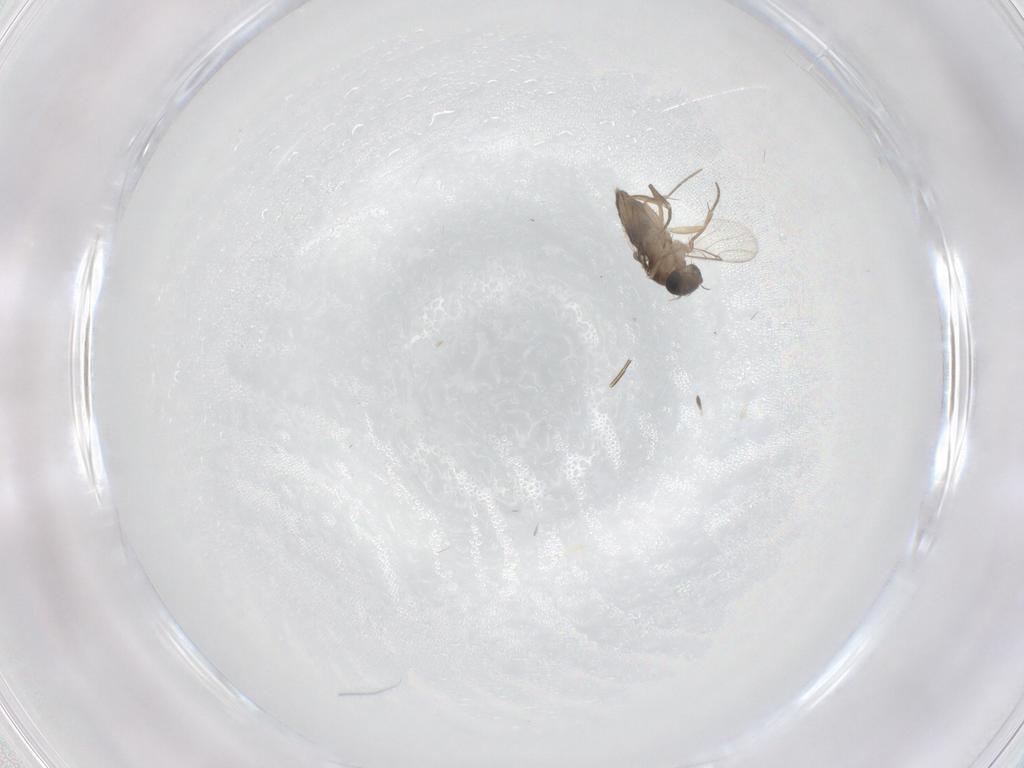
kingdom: Animalia
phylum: Arthropoda
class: Insecta
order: Diptera
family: Phoridae
